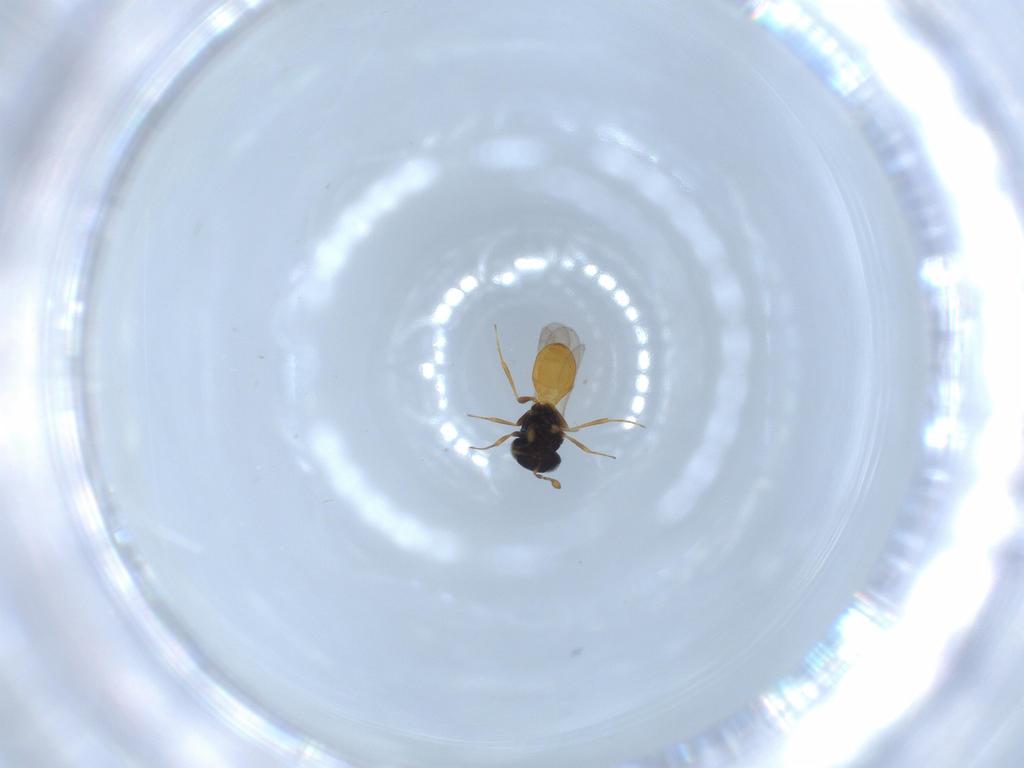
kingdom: Animalia
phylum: Arthropoda
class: Insecta
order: Hymenoptera
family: Scelionidae
